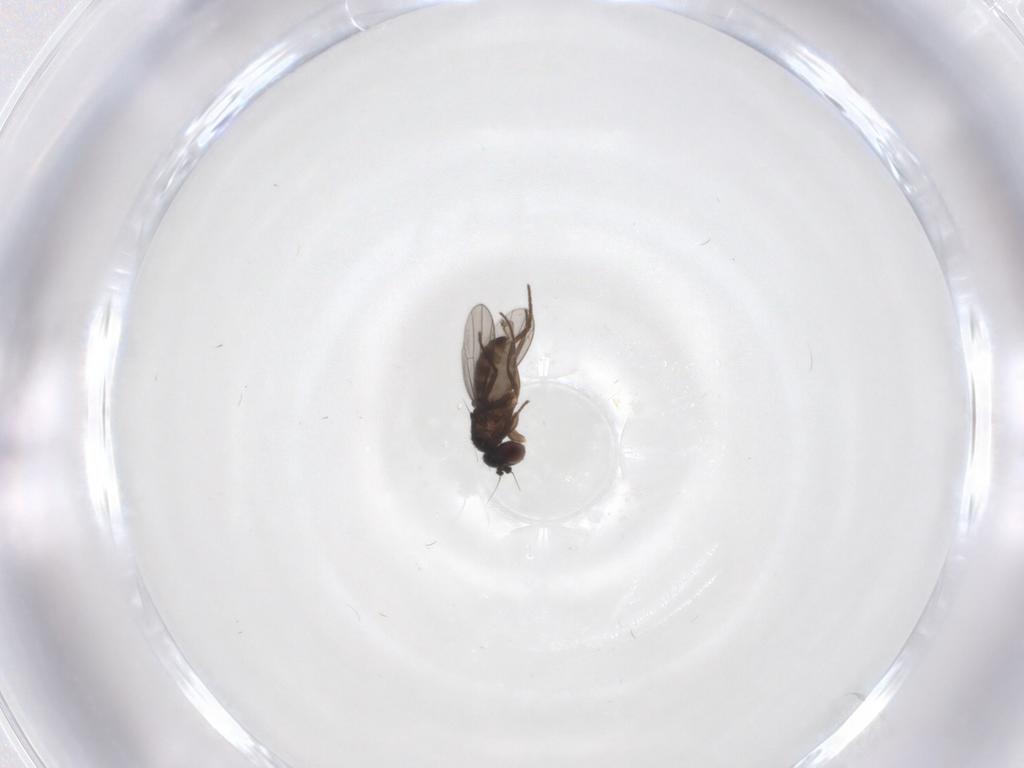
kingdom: Animalia
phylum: Arthropoda
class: Insecta
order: Diptera
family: Dolichopodidae
